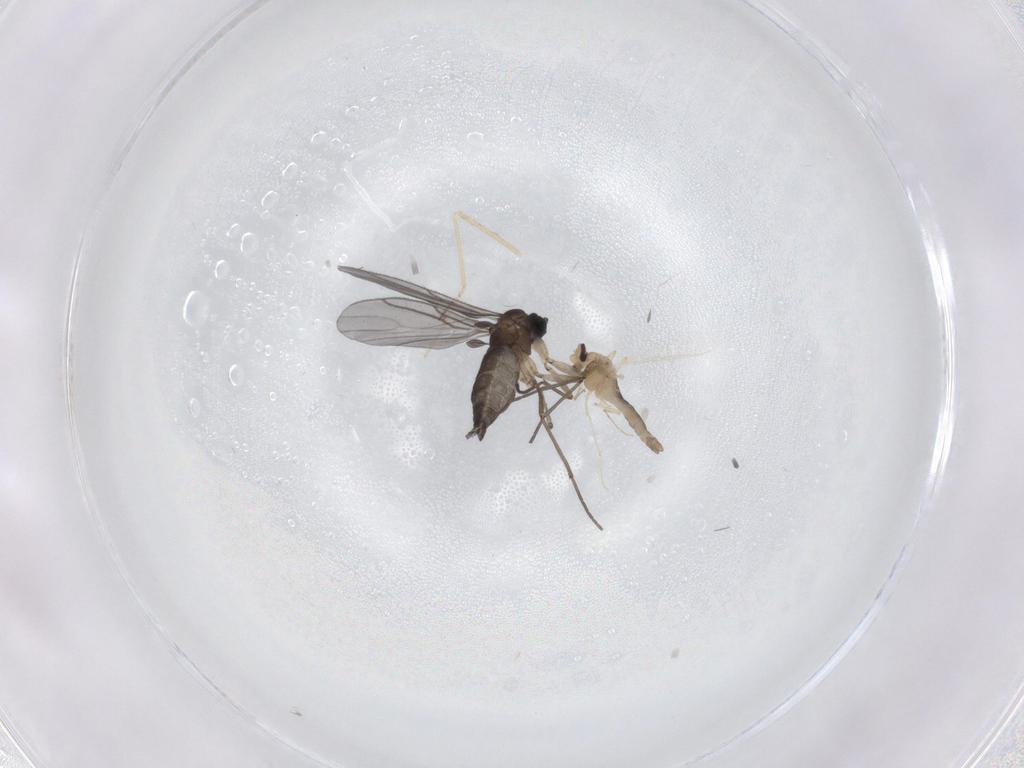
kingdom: Animalia
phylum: Arthropoda
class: Insecta
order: Diptera
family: Sciaridae
